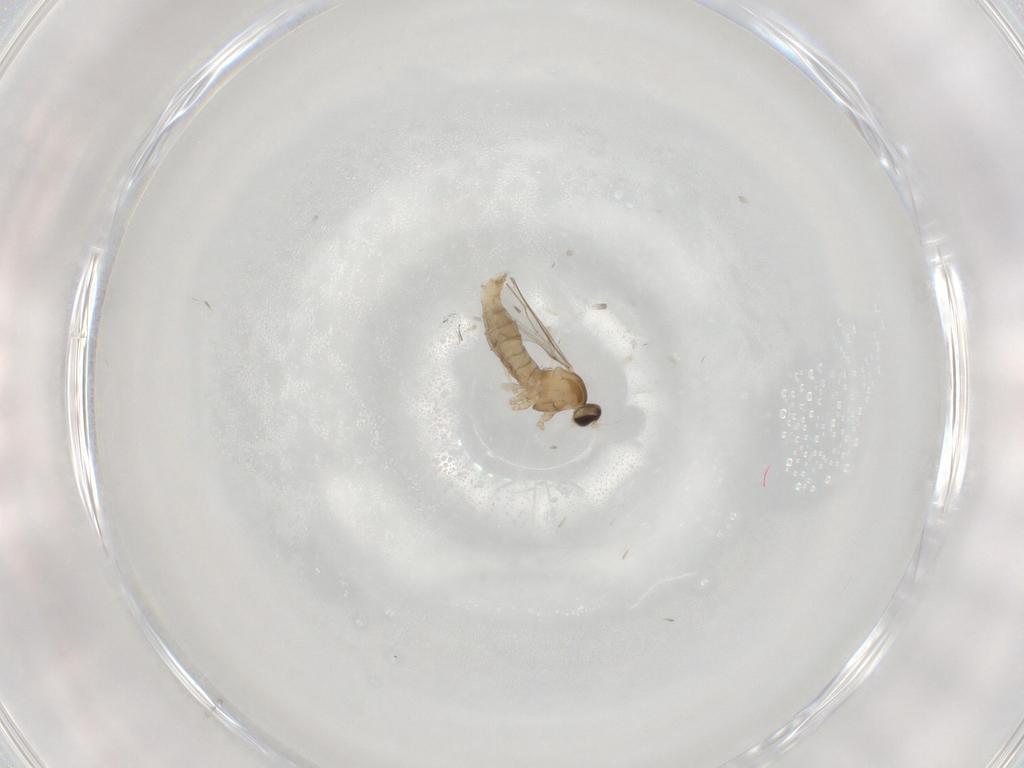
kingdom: Animalia
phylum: Arthropoda
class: Insecta
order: Diptera
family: Cecidomyiidae
